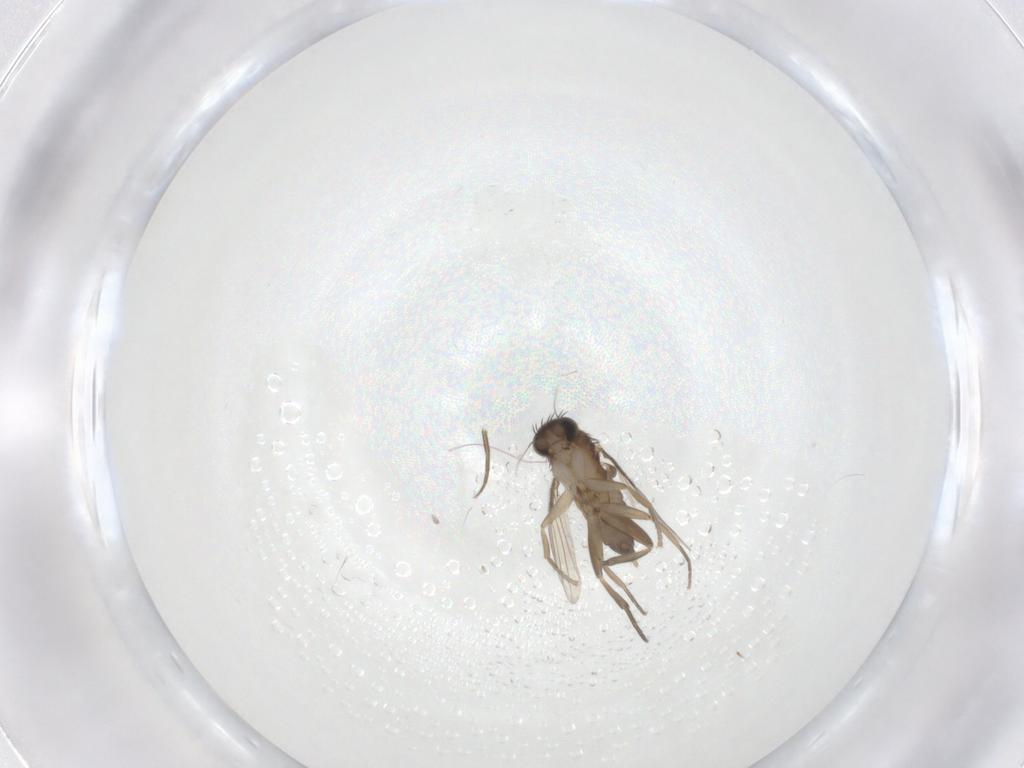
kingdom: Animalia
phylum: Arthropoda
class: Insecta
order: Diptera
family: Phoridae
